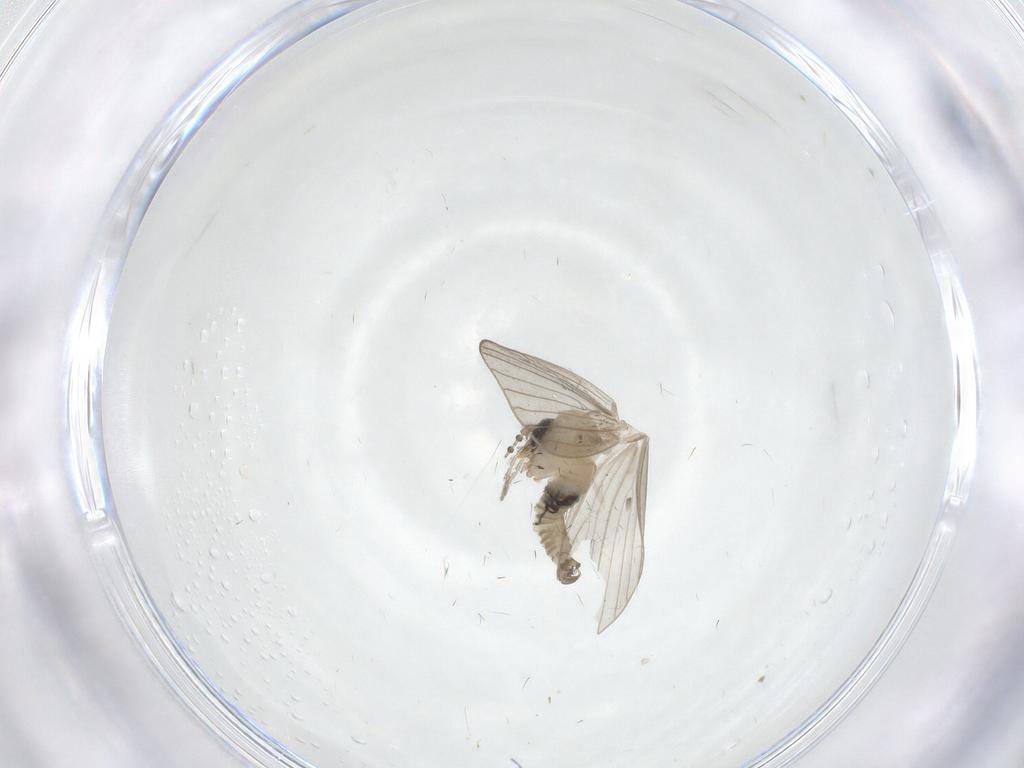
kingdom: Animalia
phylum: Arthropoda
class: Insecta
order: Diptera
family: Psychodidae
